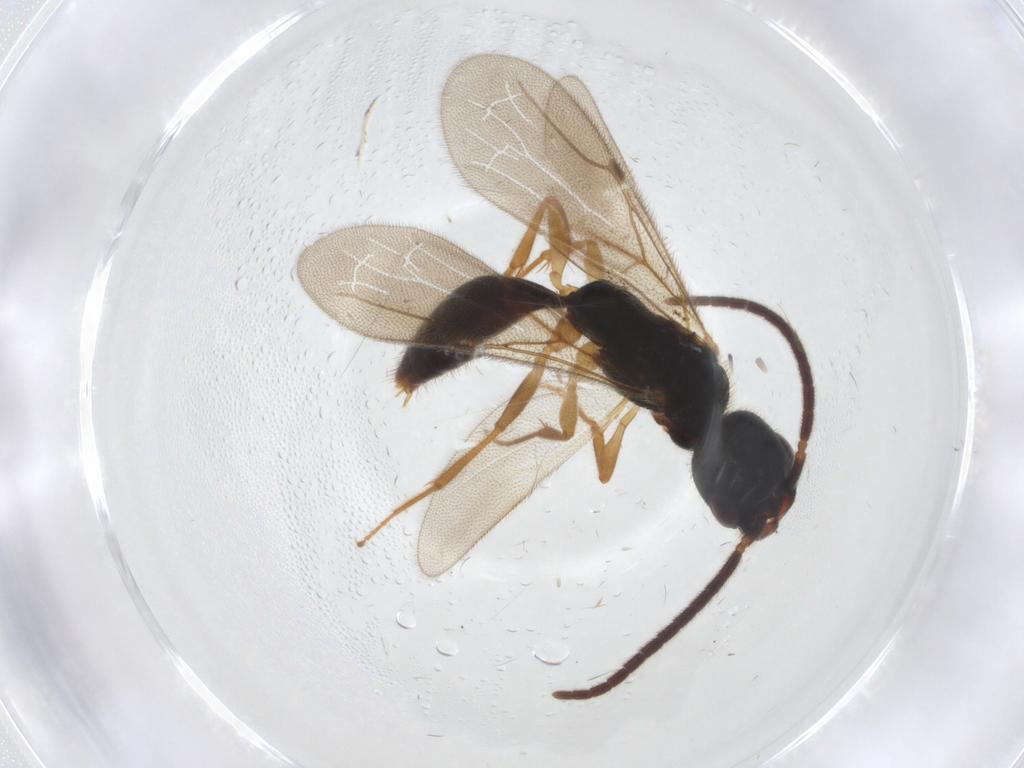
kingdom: Animalia
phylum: Arthropoda
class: Insecta
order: Hymenoptera
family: Bethylidae
